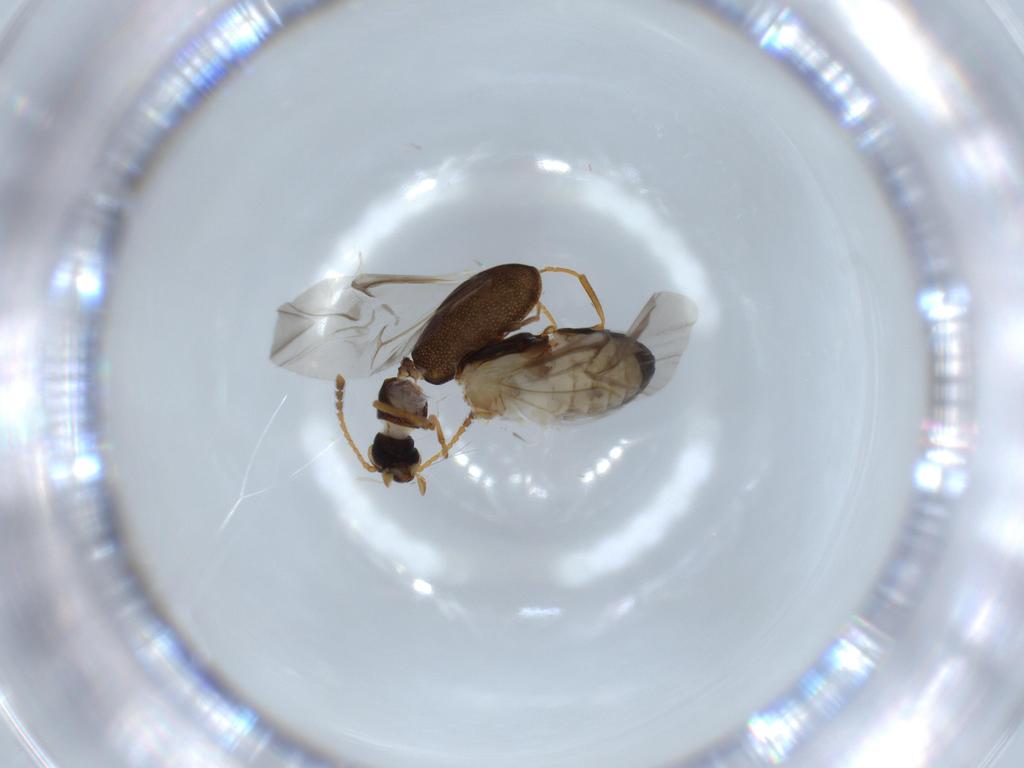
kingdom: Animalia
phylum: Arthropoda
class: Insecta
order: Coleoptera
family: Aderidae
